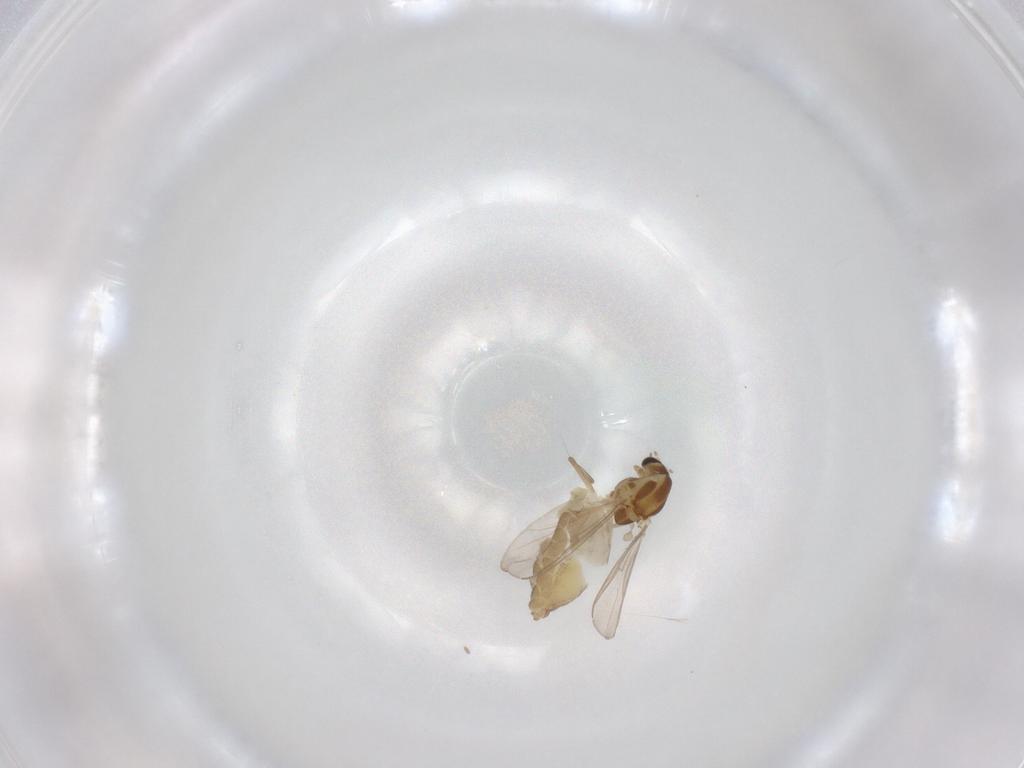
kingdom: Animalia
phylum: Arthropoda
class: Insecta
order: Diptera
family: Chironomidae
